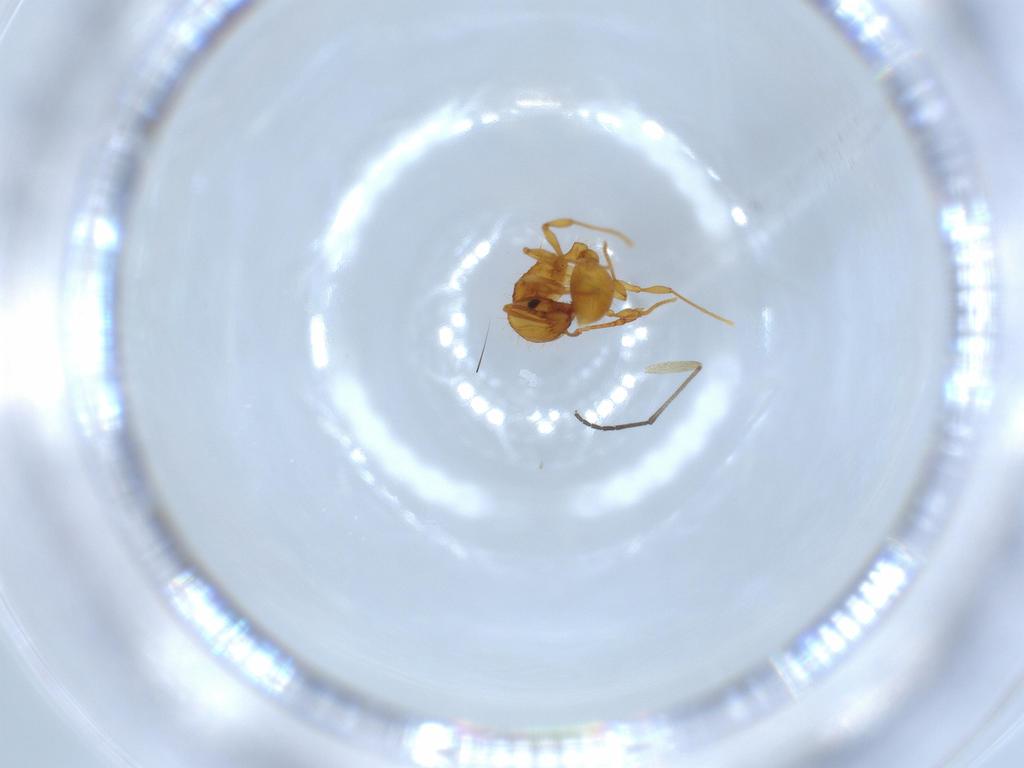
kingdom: Animalia
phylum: Arthropoda
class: Insecta
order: Hymenoptera
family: Formicidae
